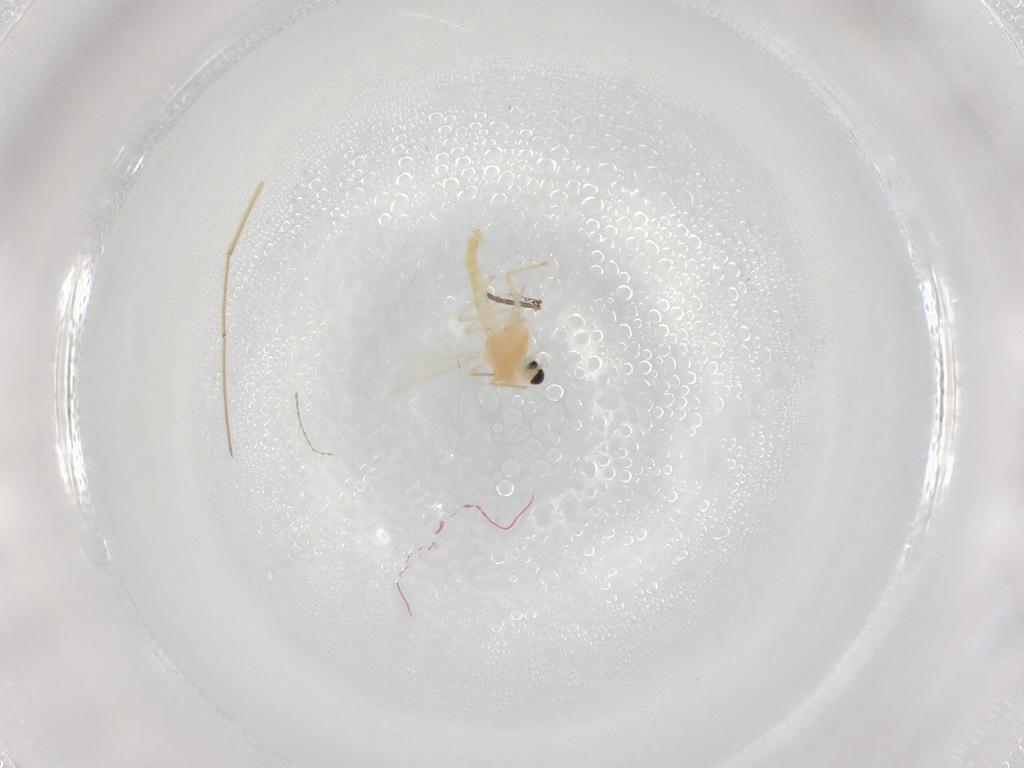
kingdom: Animalia
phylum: Arthropoda
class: Insecta
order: Diptera
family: Chironomidae
